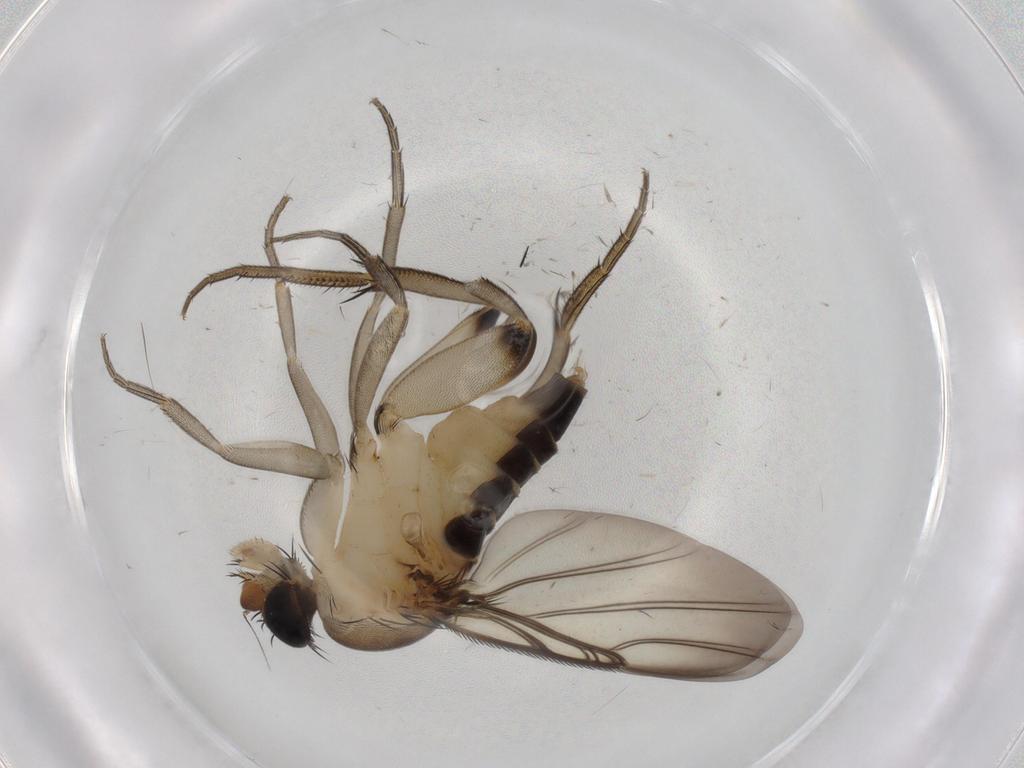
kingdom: Animalia
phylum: Arthropoda
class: Insecta
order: Diptera
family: Phoridae
